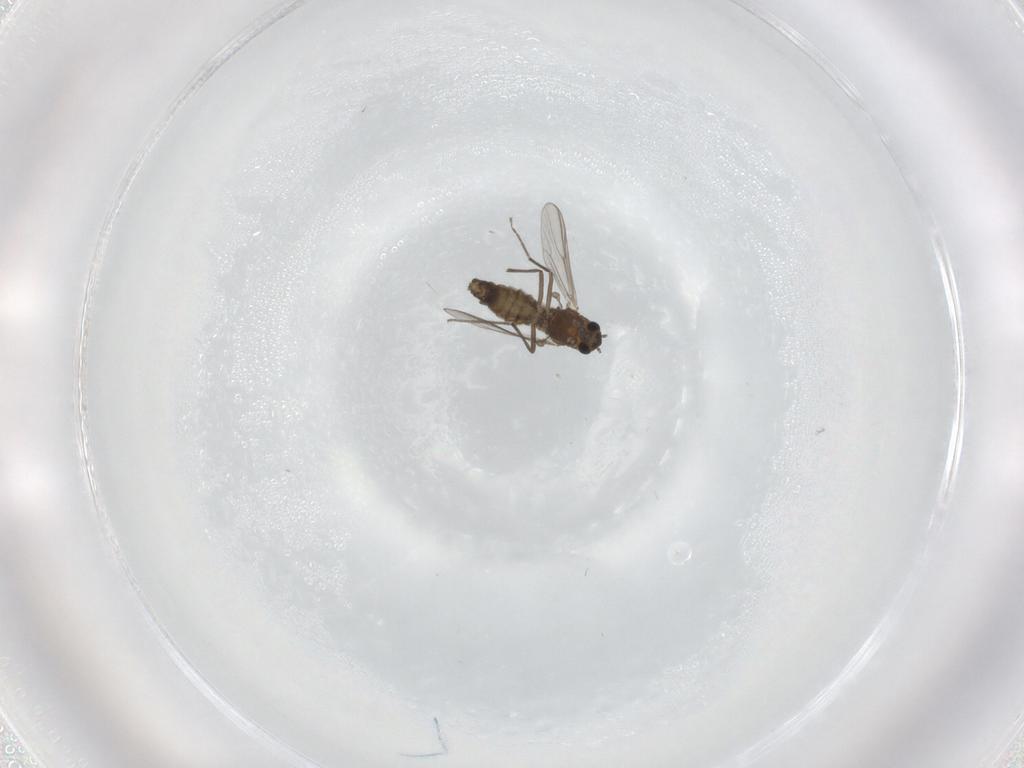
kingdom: Animalia
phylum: Arthropoda
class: Insecta
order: Diptera
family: Chironomidae
